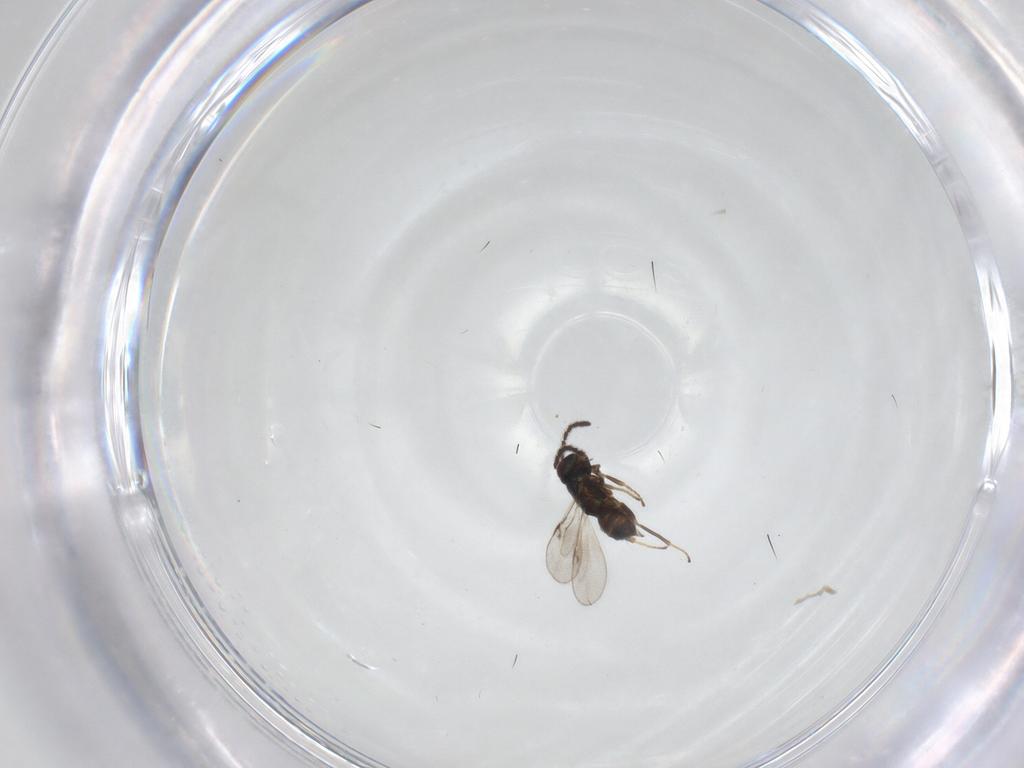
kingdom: Animalia
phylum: Arthropoda
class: Insecta
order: Hymenoptera
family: Encyrtidae
